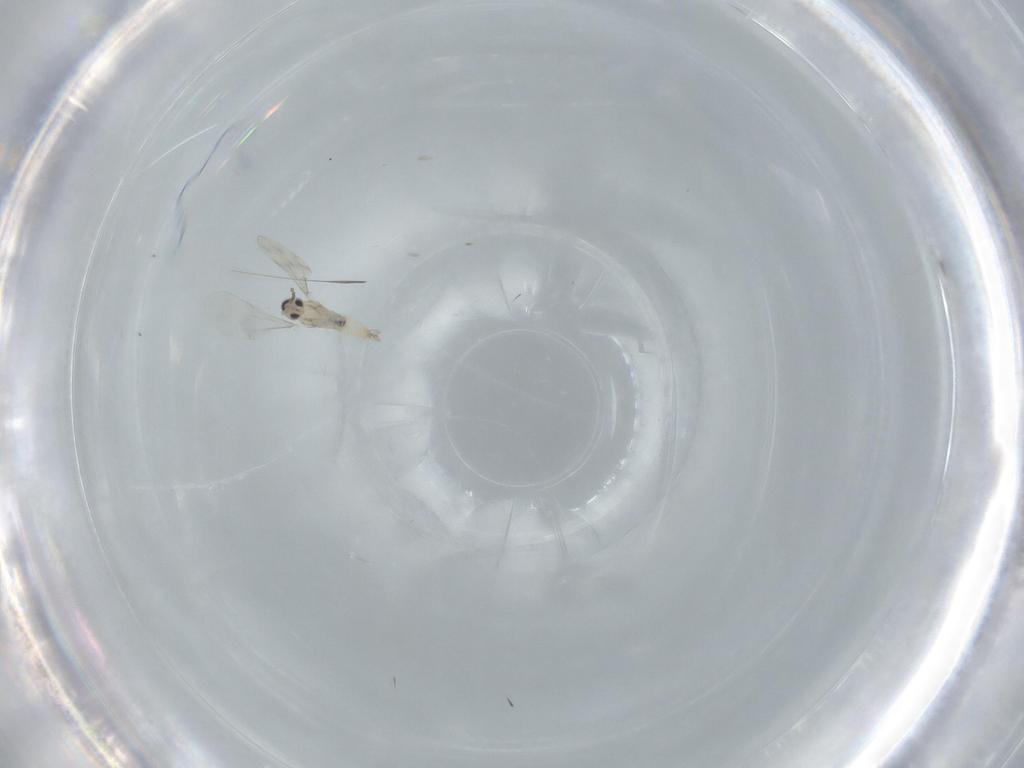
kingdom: Animalia
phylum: Arthropoda
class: Insecta
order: Diptera
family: Cecidomyiidae
